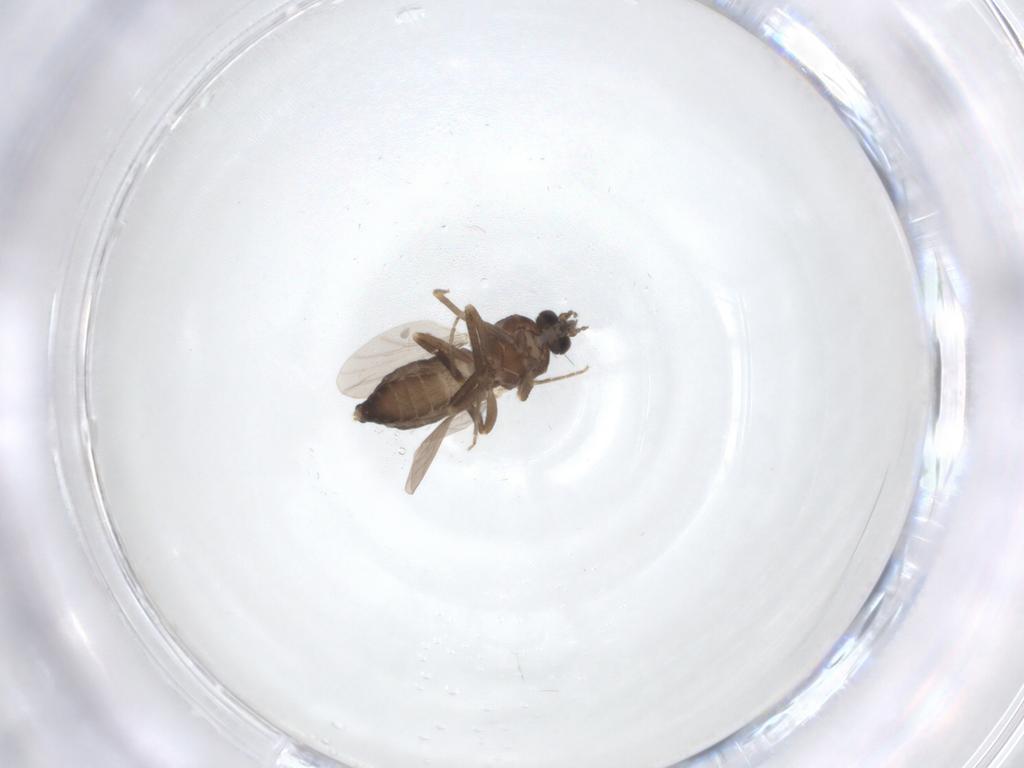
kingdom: Animalia
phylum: Arthropoda
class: Insecta
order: Diptera
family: Ceratopogonidae
